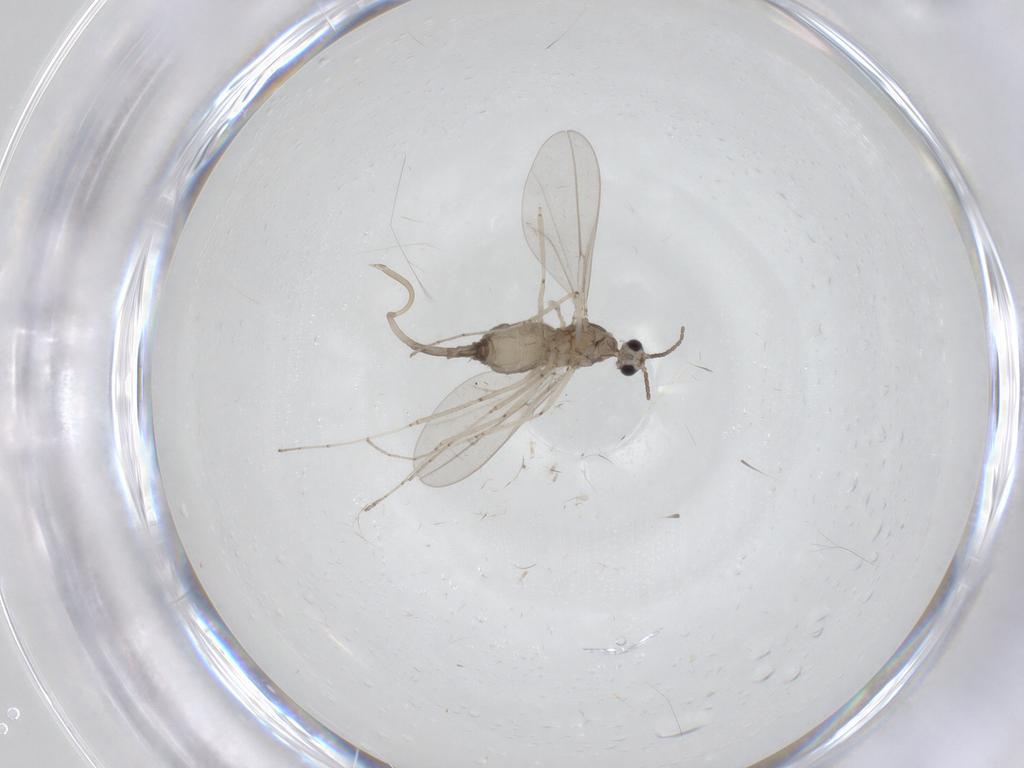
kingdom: Animalia
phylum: Arthropoda
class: Insecta
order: Diptera
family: Cecidomyiidae
